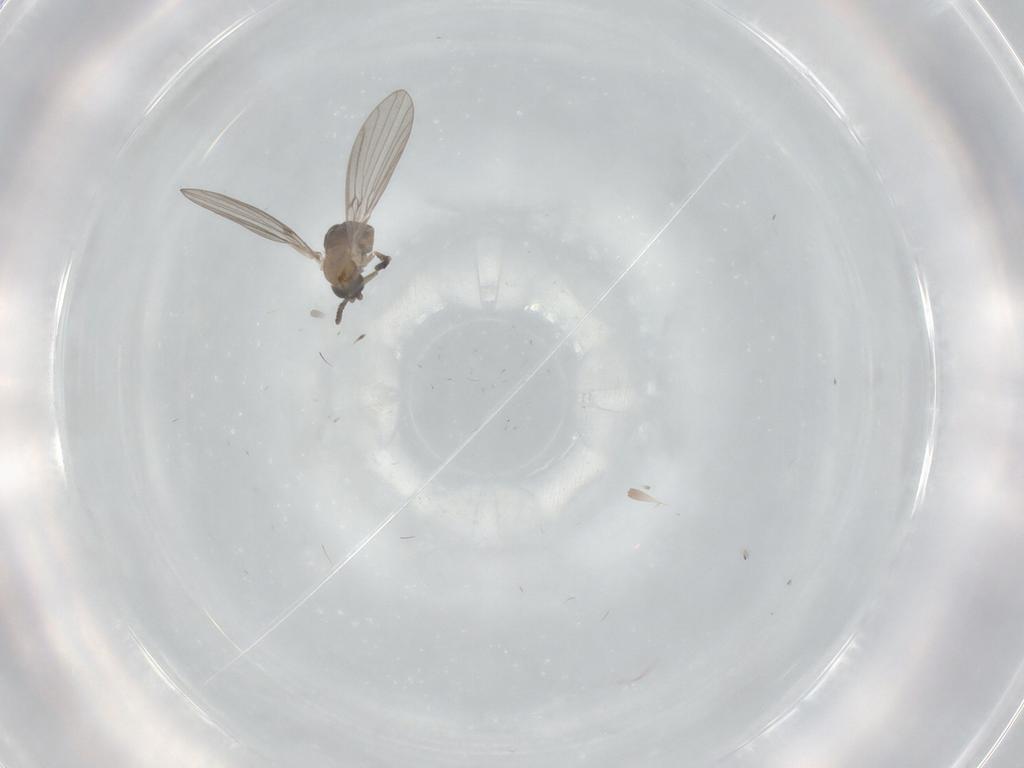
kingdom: Animalia
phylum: Arthropoda
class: Insecta
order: Diptera
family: Psychodidae
